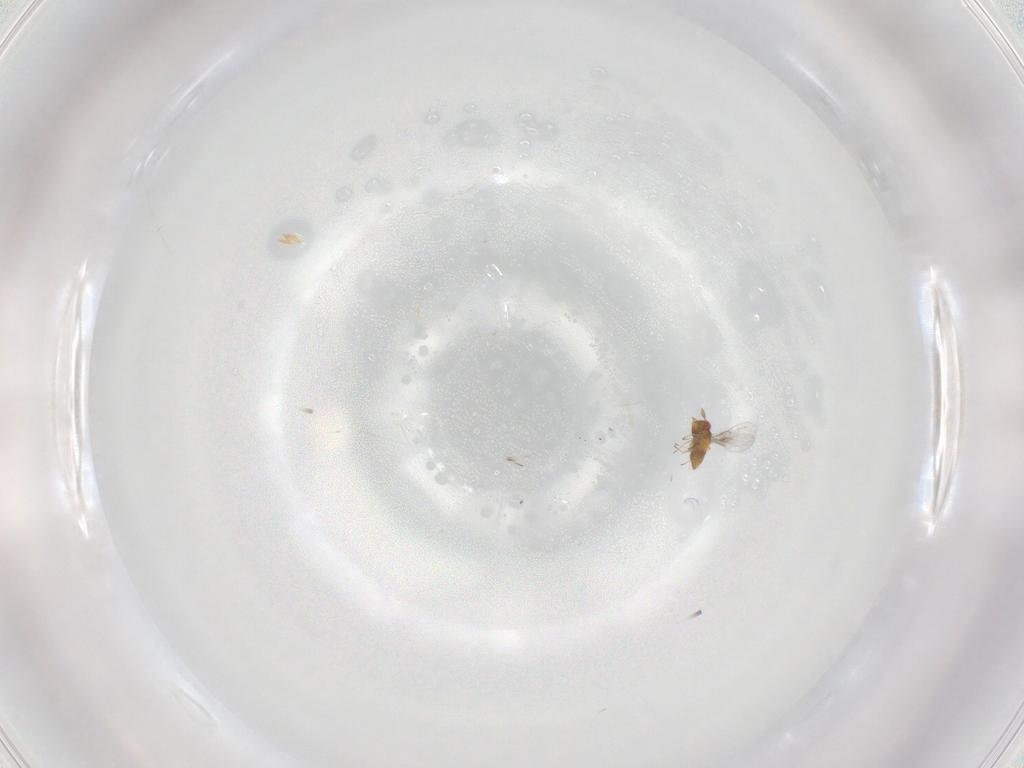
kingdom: Animalia
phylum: Arthropoda
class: Insecta
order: Hymenoptera
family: Trichogrammatidae
